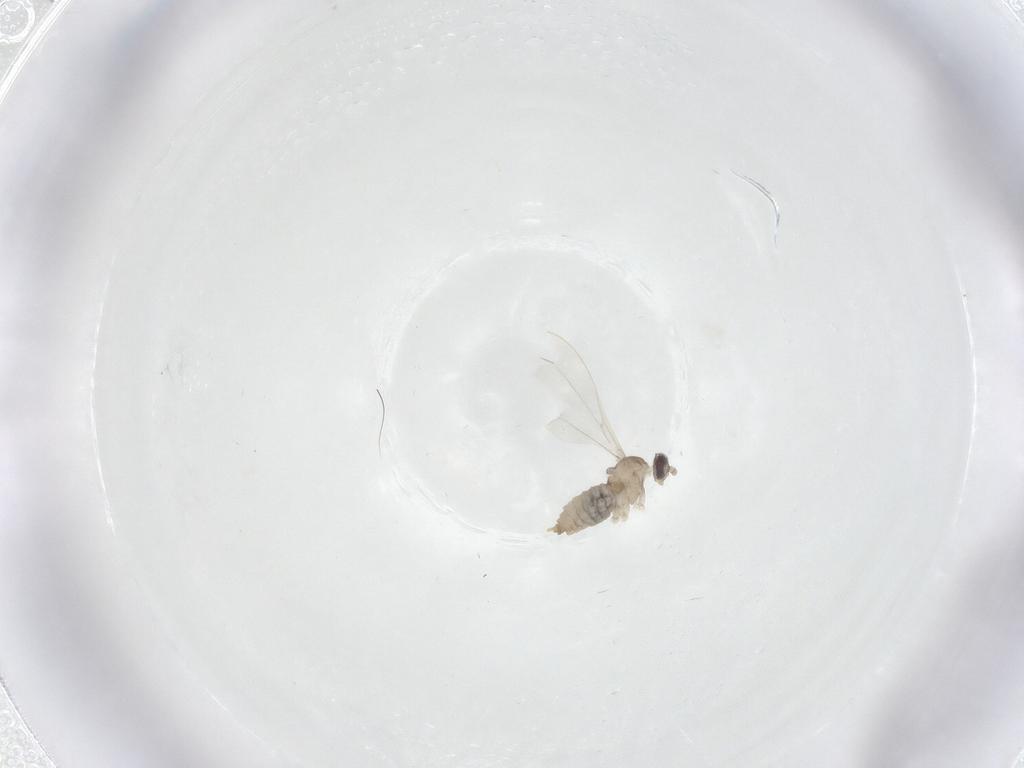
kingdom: Animalia
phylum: Arthropoda
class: Insecta
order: Diptera
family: Cecidomyiidae
